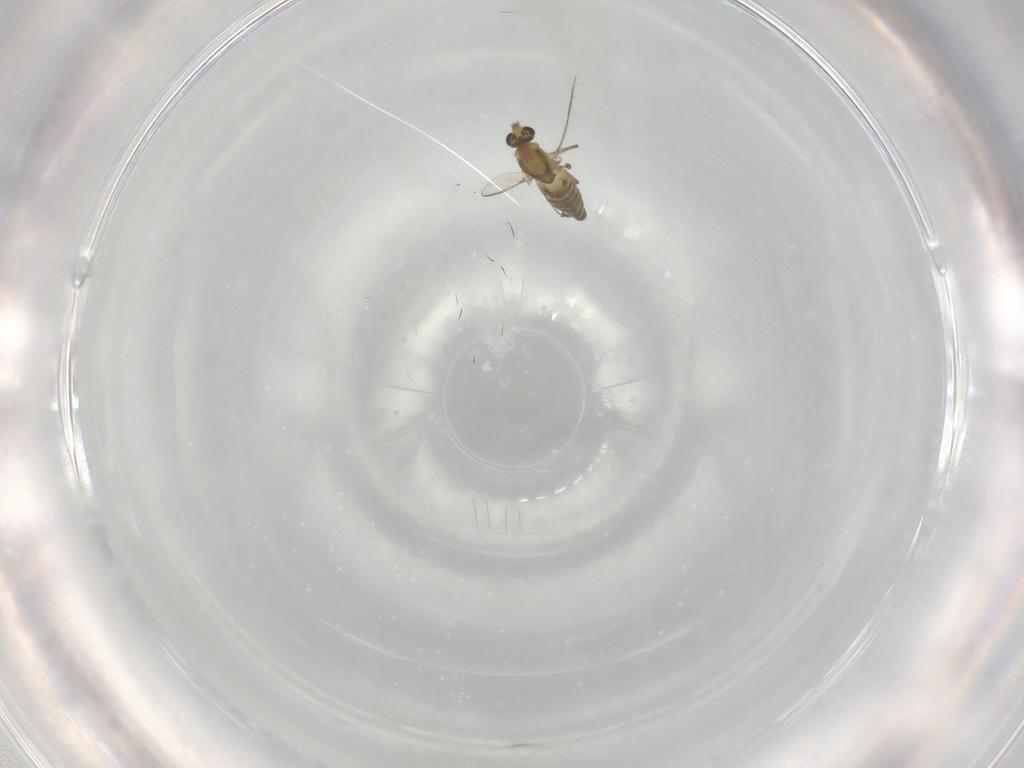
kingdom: Animalia
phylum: Arthropoda
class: Insecta
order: Diptera
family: Chironomidae
